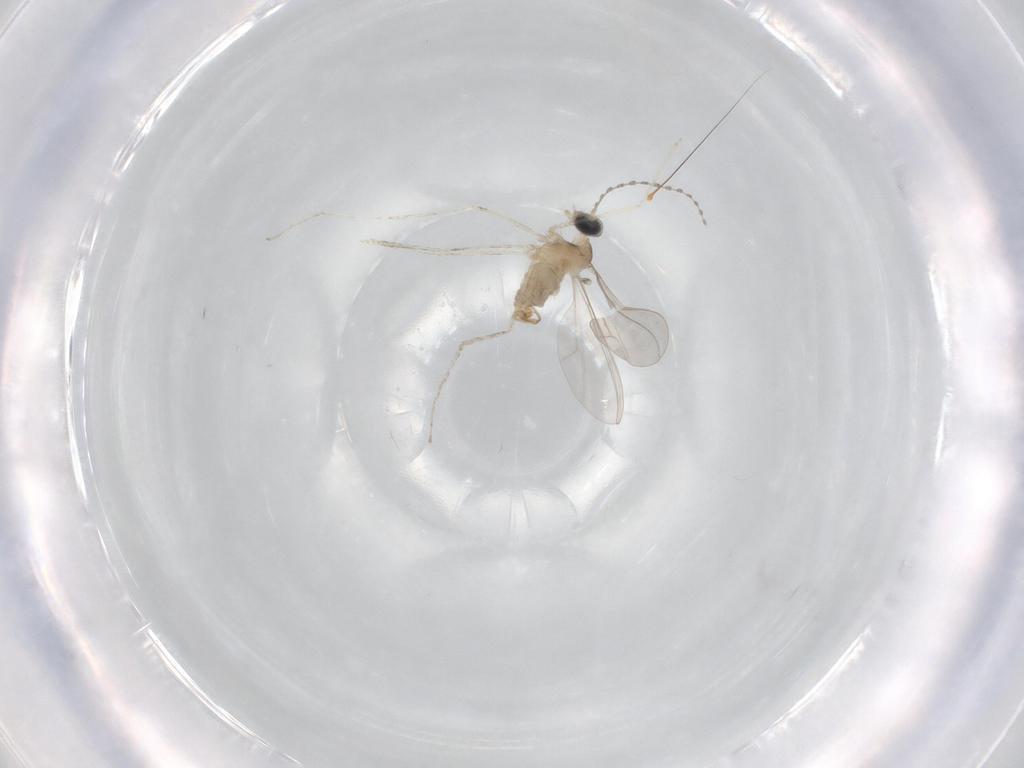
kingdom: Animalia
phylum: Arthropoda
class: Insecta
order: Diptera
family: Cecidomyiidae
